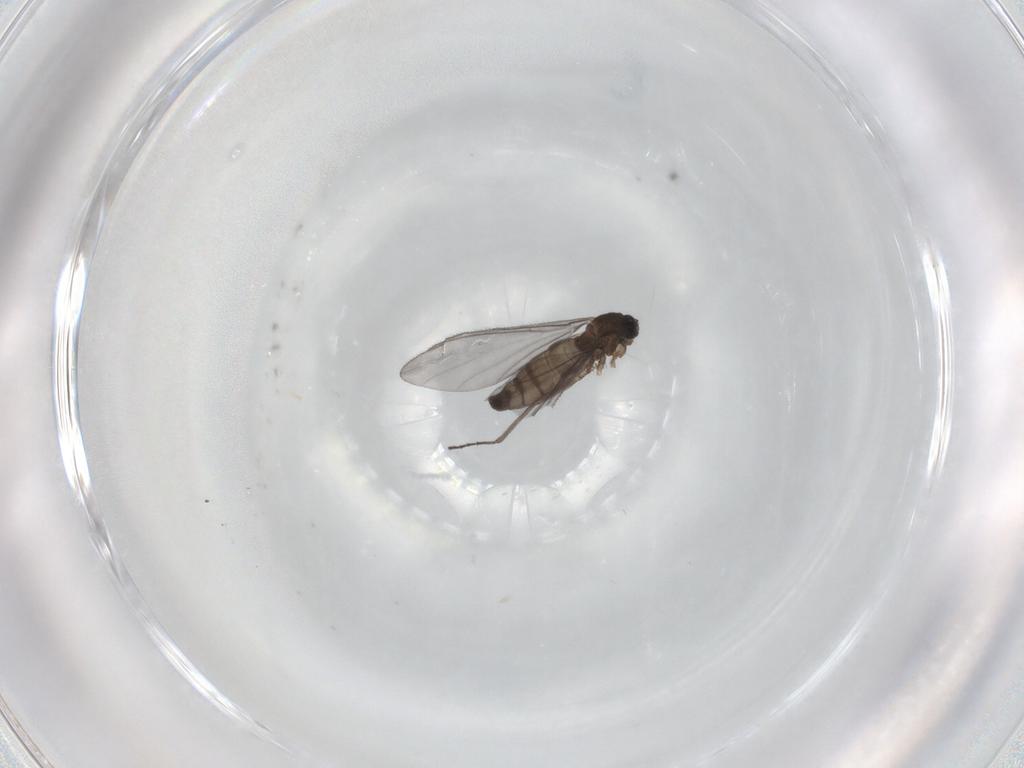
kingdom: Animalia
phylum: Arthropoda
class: Insecta
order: Diptera
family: Sciaridae
